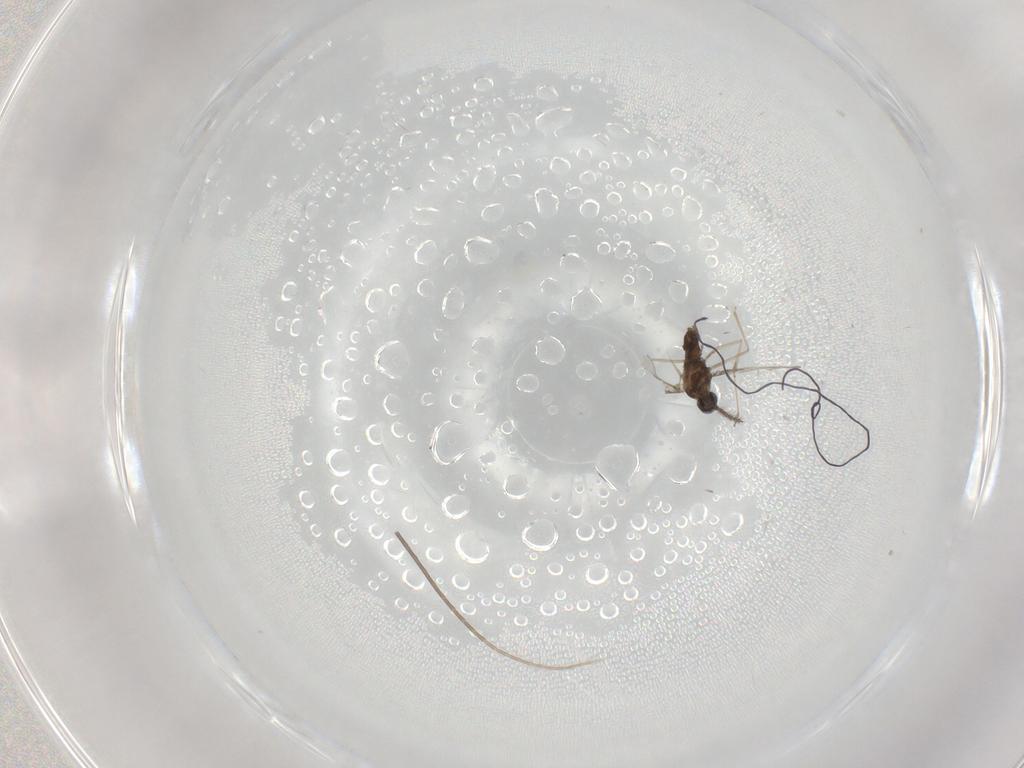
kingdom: Animalia
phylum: Arthropoda
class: Insecta
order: Diptera
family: Cecidomyiidae
